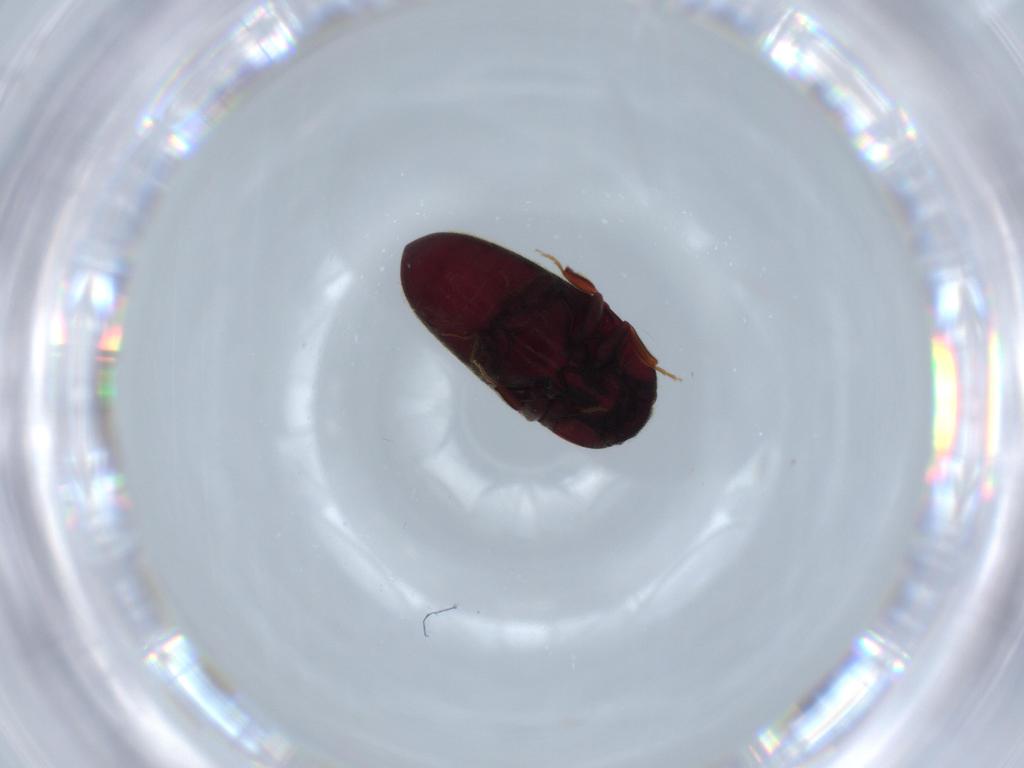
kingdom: Animalia
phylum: Arthropoda
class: Insecta
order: Coleoptera
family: Throscidae
